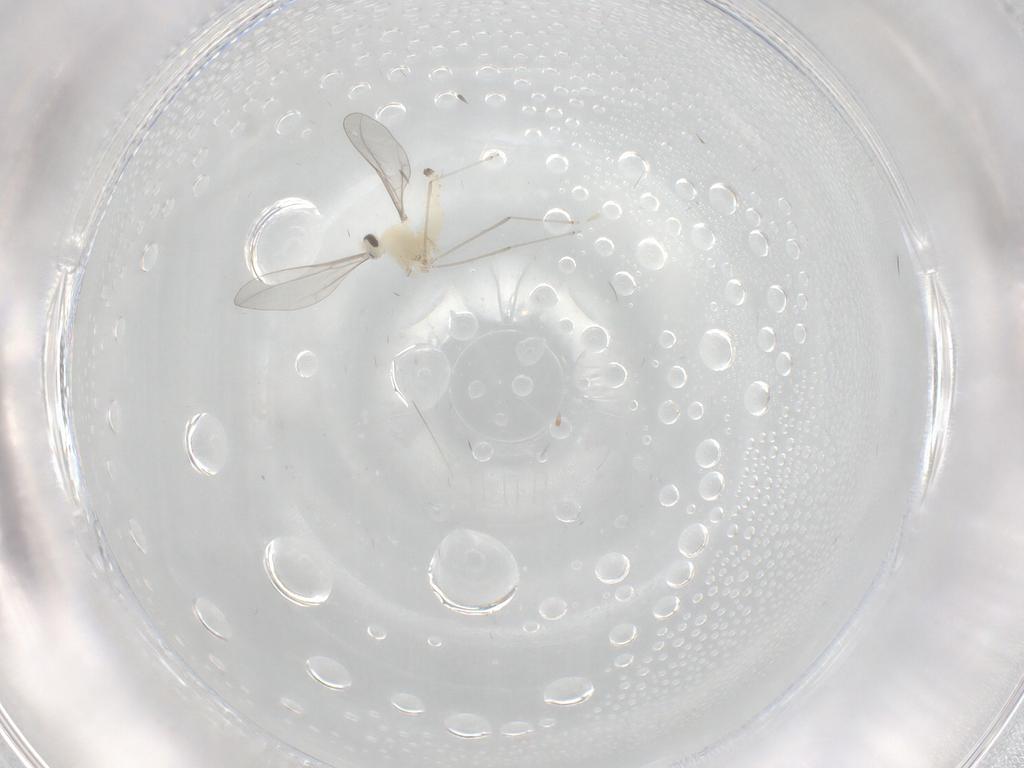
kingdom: Animalia
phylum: Arthropoda
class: Insecta
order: Diptera
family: Cecidomyiidae
